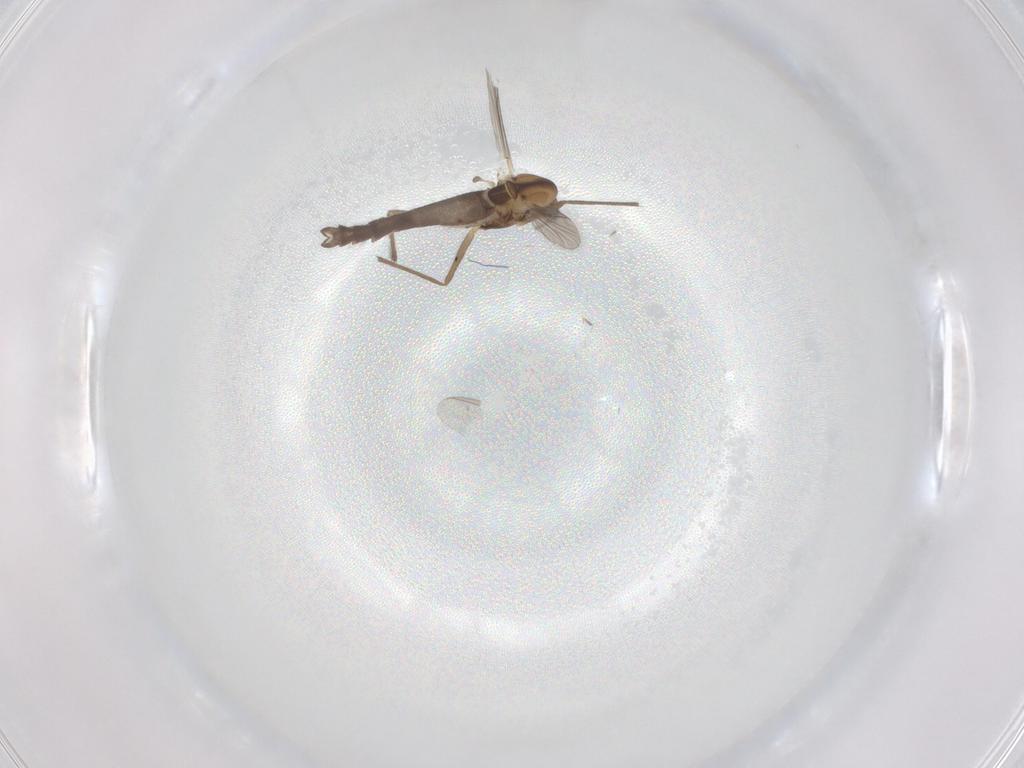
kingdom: Animalia
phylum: Arthropoda
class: Insecta
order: Diptera
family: Chironomidae
